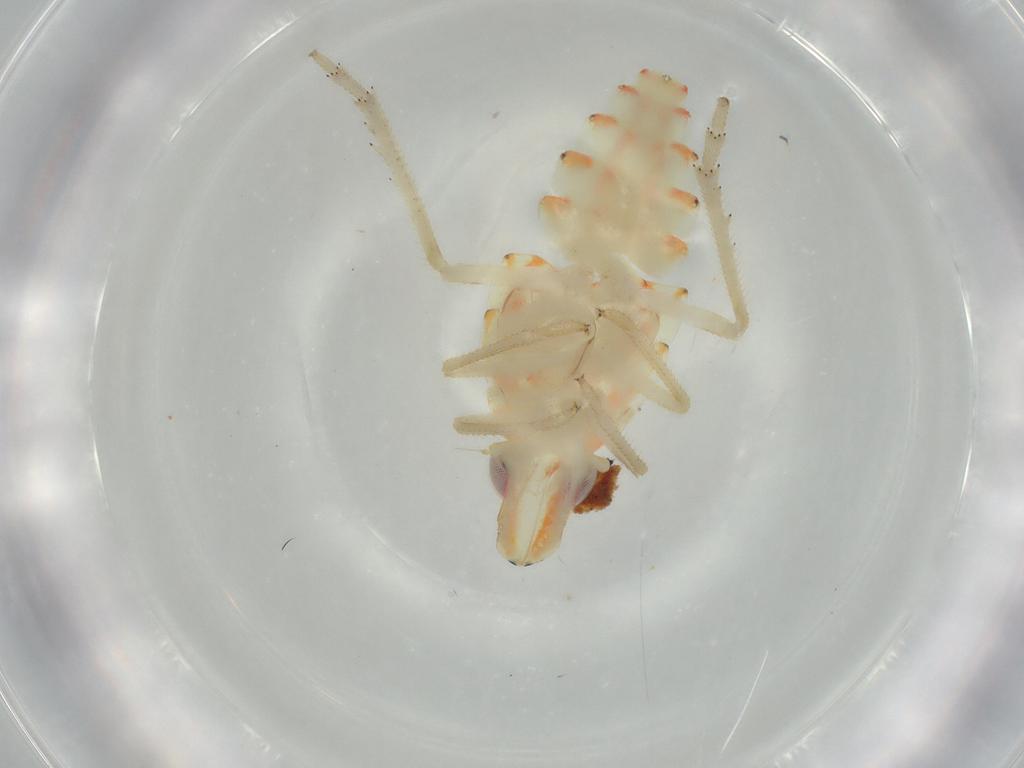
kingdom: Animalia
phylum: Arthropoda
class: Insecta
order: Hemiptera
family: Tropiduchidae
